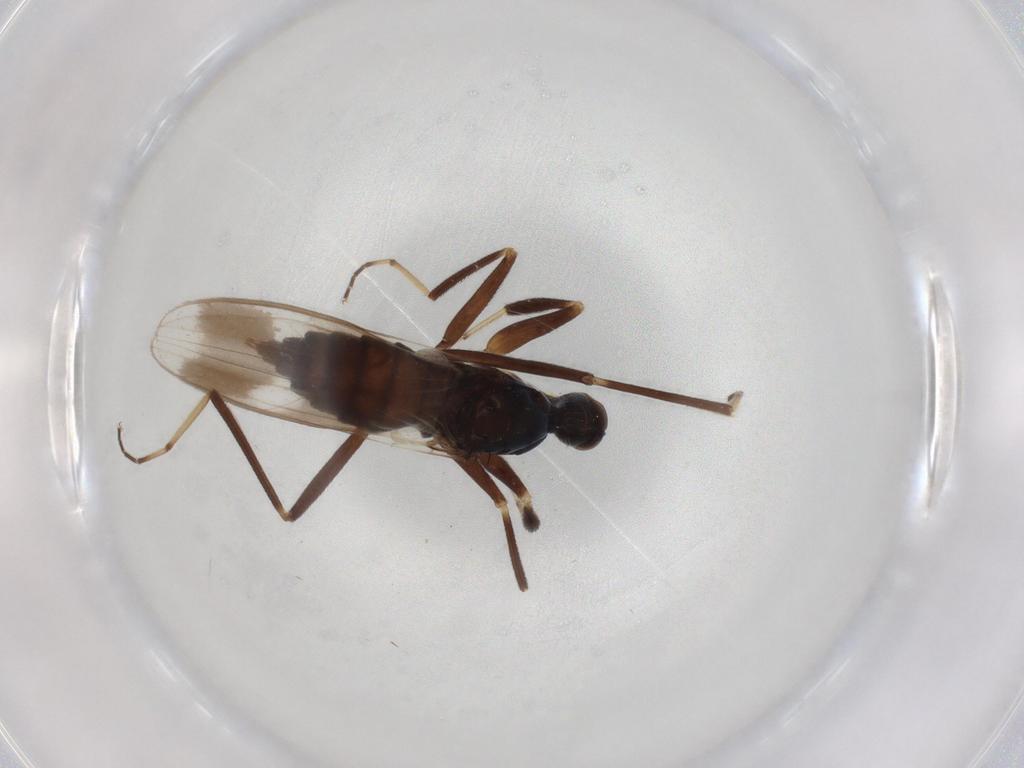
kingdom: Animalia
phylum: Arthropoda
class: Insecta
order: Diptera
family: Hybotidae
